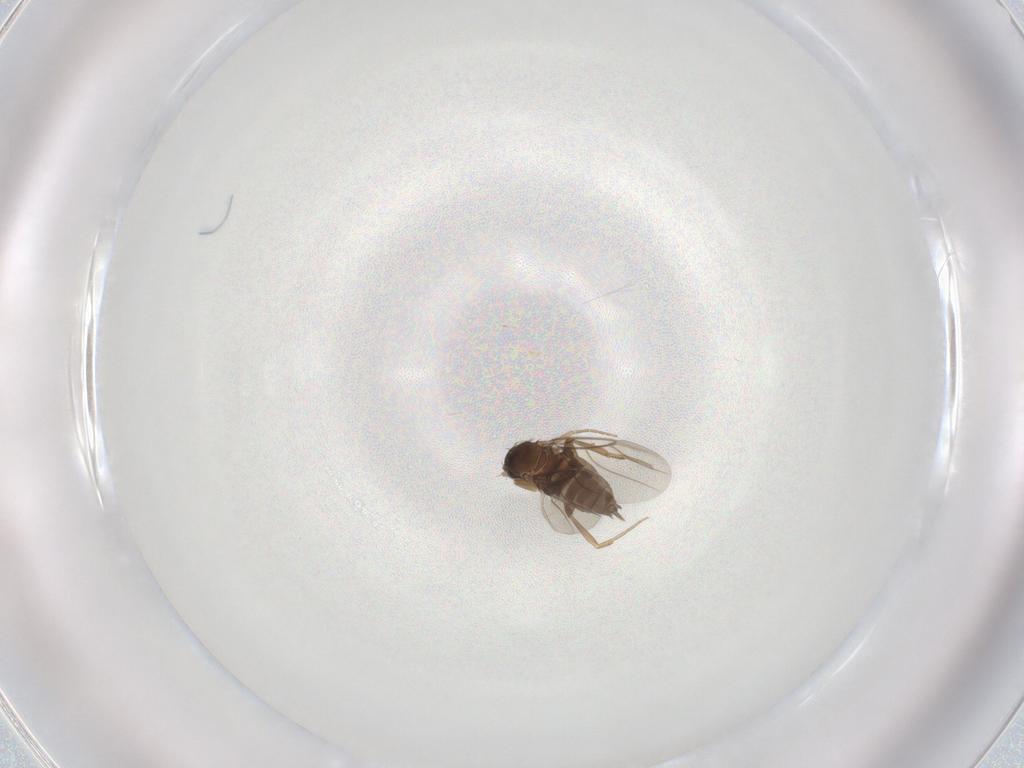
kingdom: Animalia
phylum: Arthropoda
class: Insecta
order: Diptera
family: Phoridae
